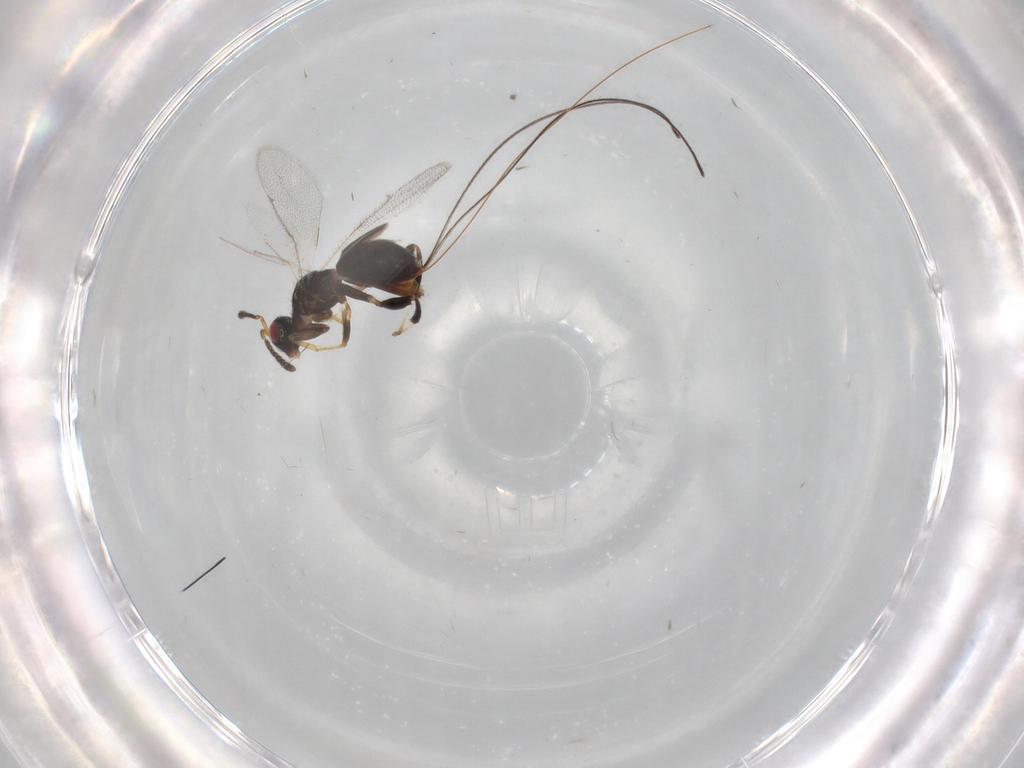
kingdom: Animalia
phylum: Arthropoda
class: Insecta
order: Hymenoptera
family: Torymidae
